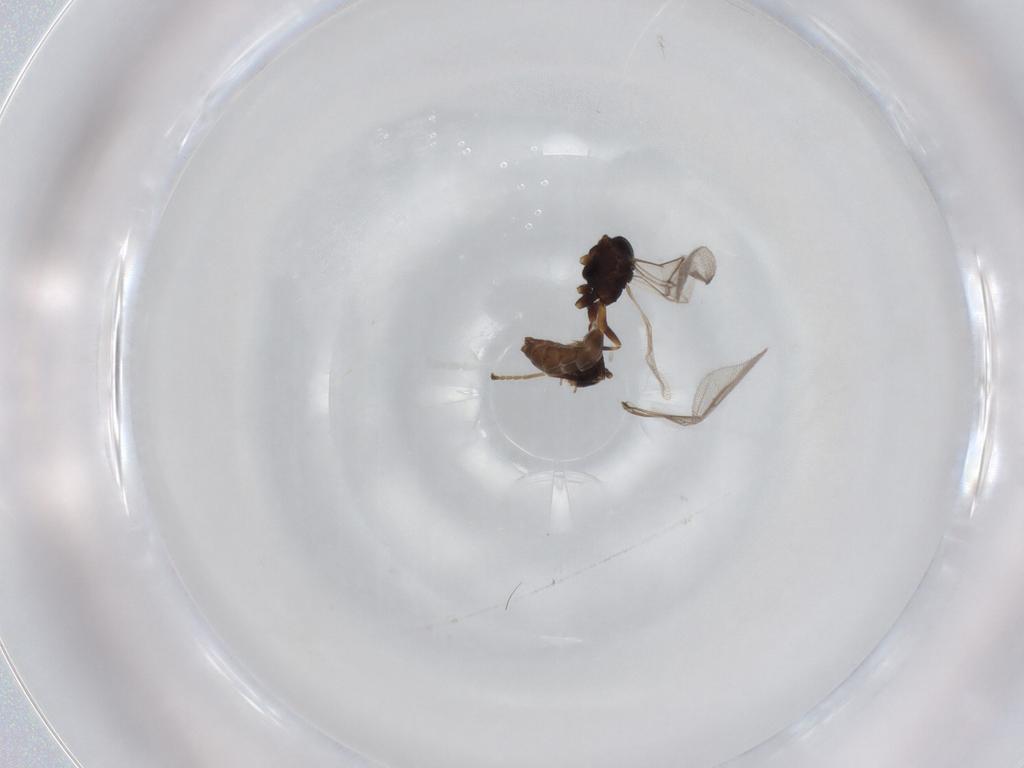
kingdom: Animalia
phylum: Arthropoda
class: Insecta
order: Hymenoptera
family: Braconidae
